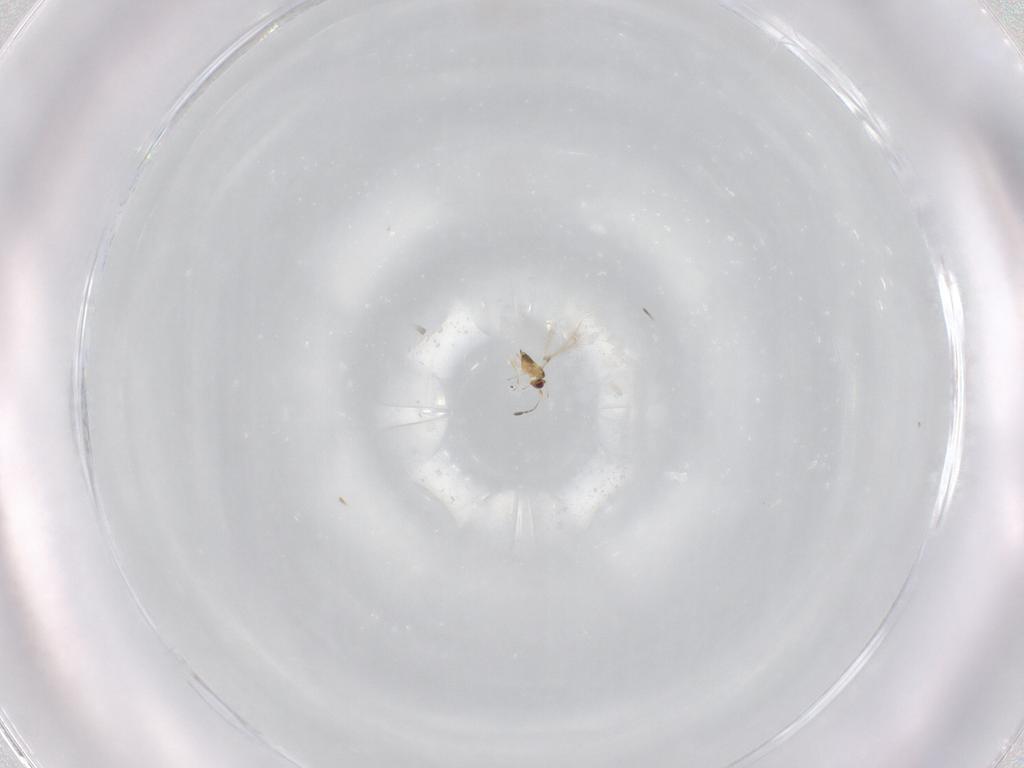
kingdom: Animalia
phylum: Arthropoda
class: Insecta
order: Hymenoptera
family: Mymaridae
